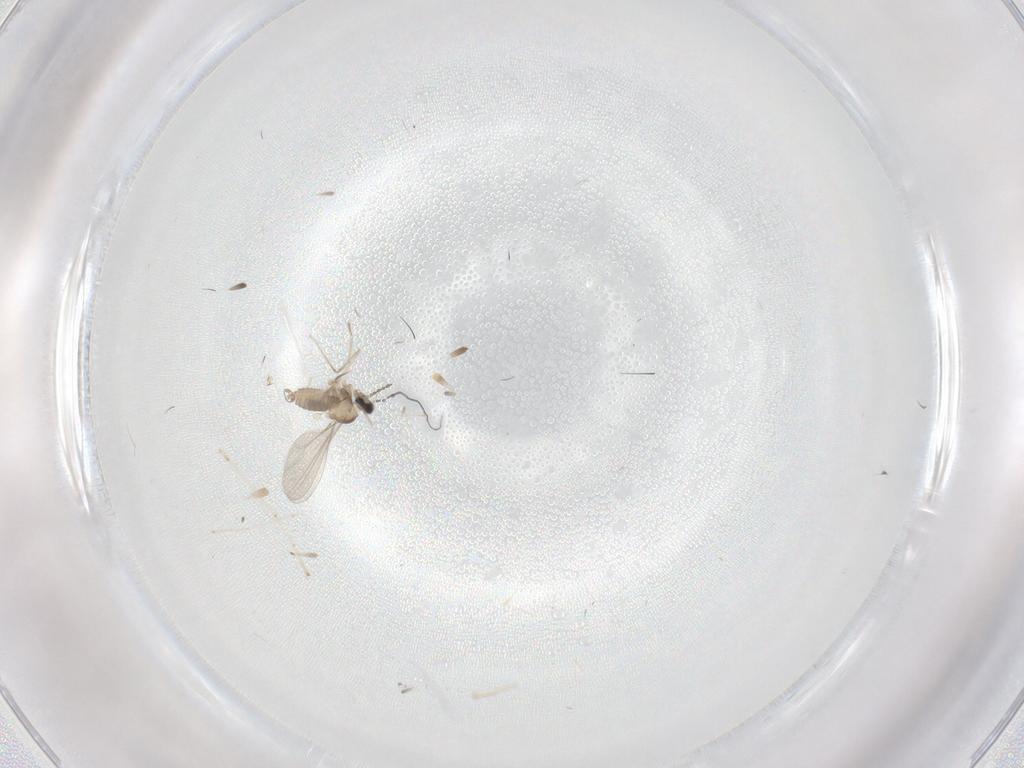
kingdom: Animalia
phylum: Arthropoda
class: Insecta
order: Diptera
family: Cecidomyiidae
